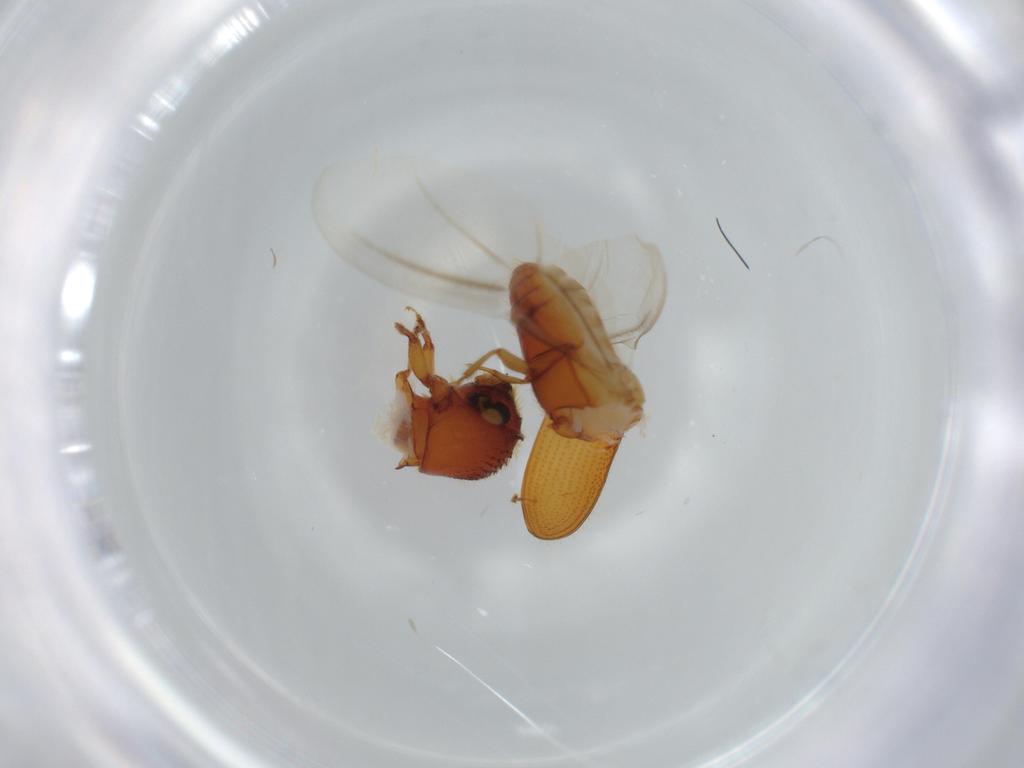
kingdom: Animalia
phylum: Arthropoda
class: Insecta
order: Coleoptera
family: Curculionidae
